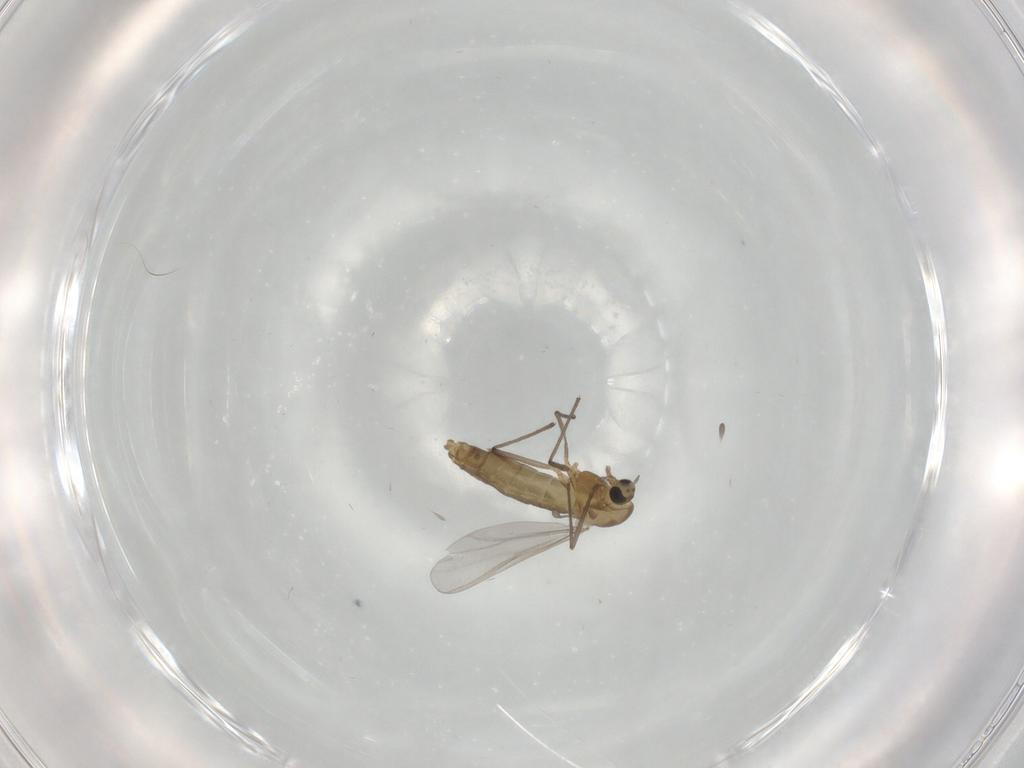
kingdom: Animalia
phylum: Arthropoda
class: Insecta
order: Diptera
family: Chironomidae
